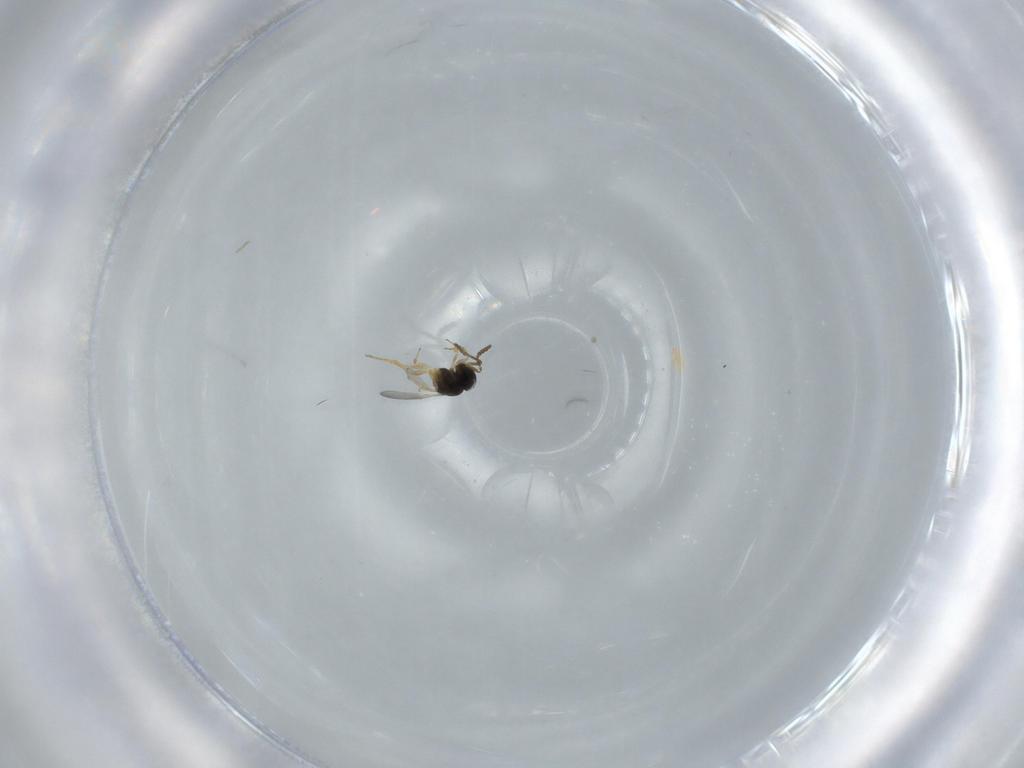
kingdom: Animalia
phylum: Arthropoda
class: Insecta
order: Hymenoptera
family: Scelionidae
